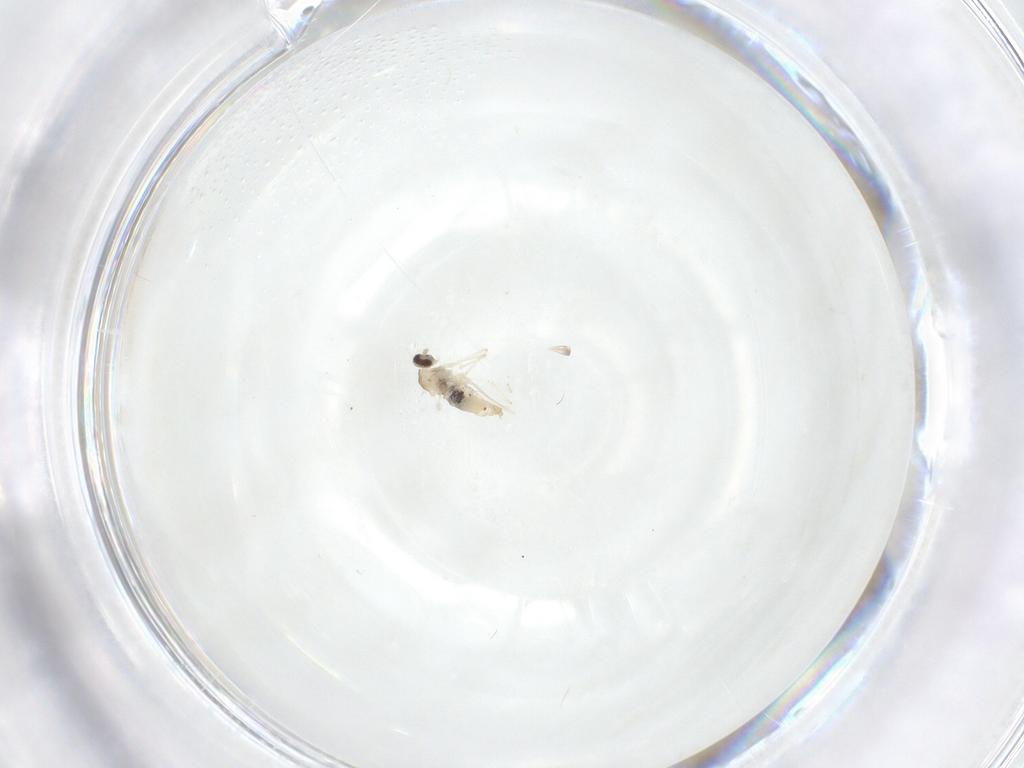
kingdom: Animalia
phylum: Arthropoda
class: Insecta
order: Diptera
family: Cecidomyiidae
